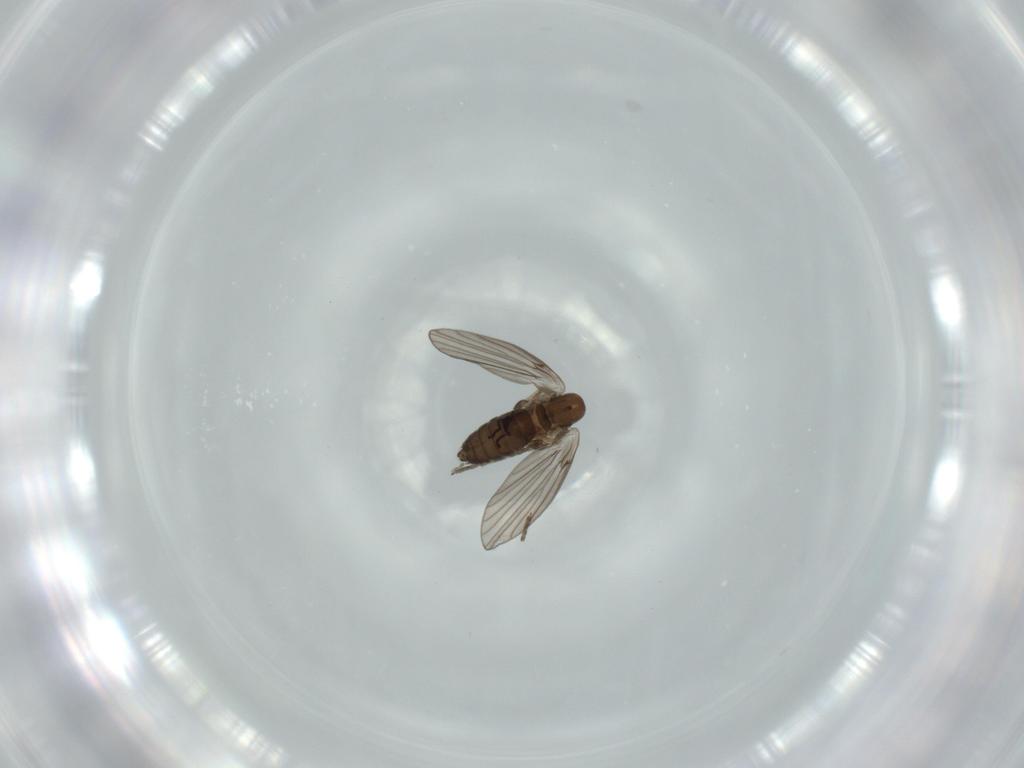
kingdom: Animalia
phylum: Arthropoda
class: Insecta
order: Diptera
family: Psychodidae
